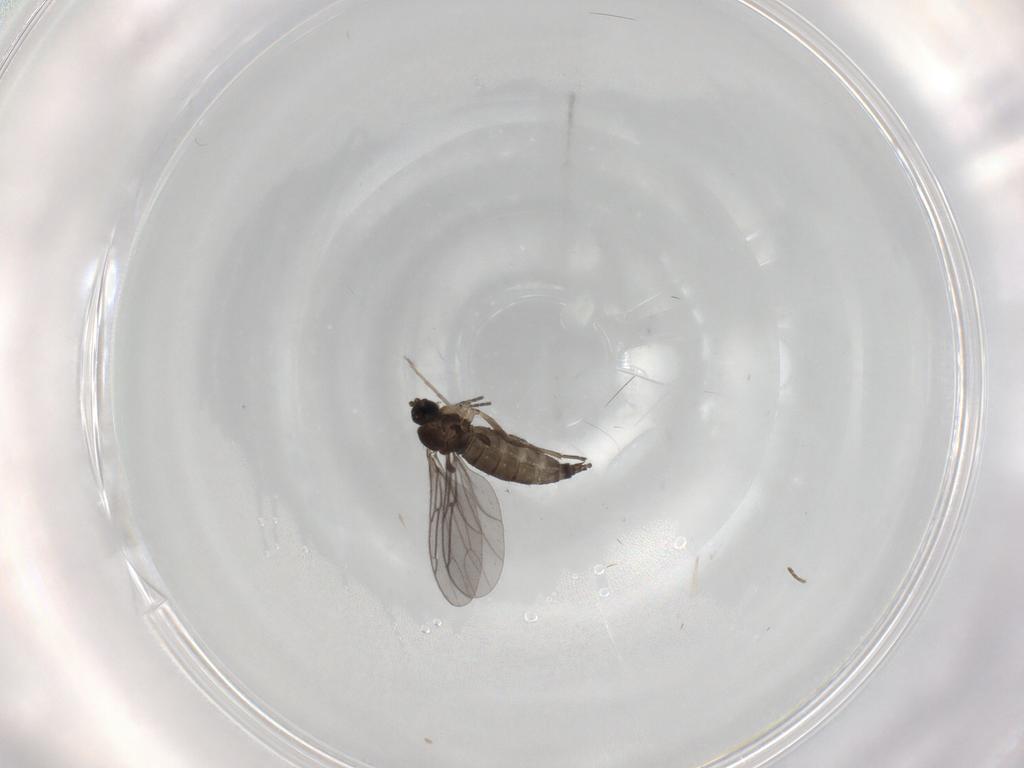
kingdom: Animalia
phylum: Arthropoda
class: Insecta
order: Diptera
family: Sciaridae
